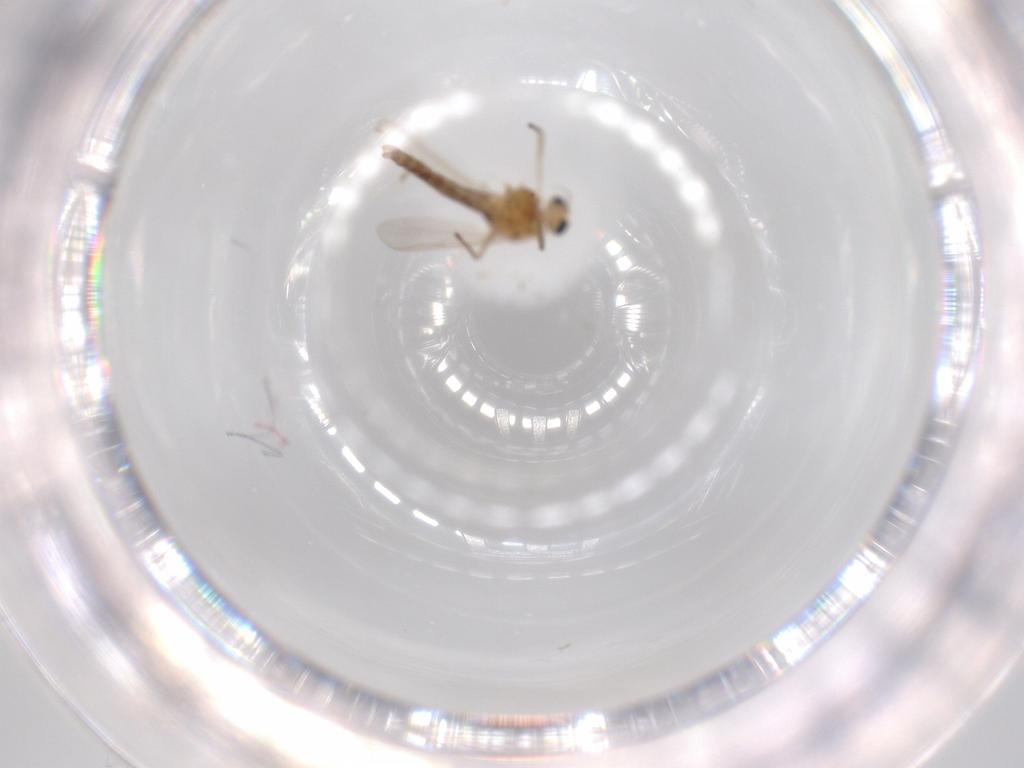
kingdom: Animalia
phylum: Arthropoda
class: Insecta
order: Diptera
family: Chironomidae
